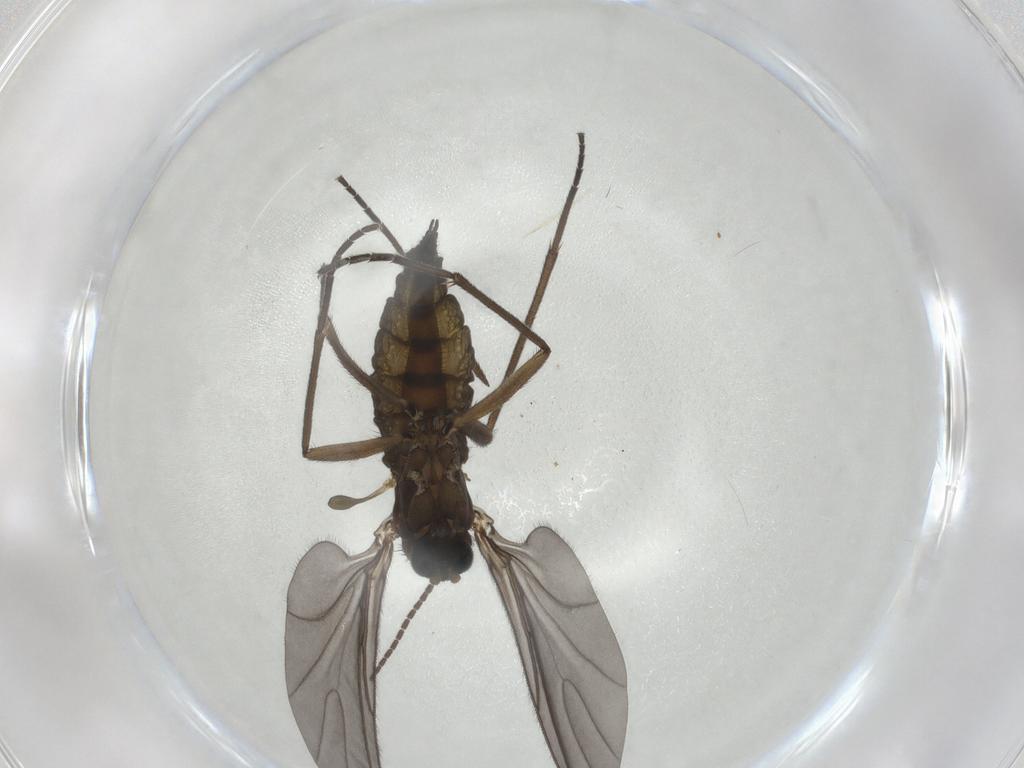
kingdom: Animalia
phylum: Arthropoda
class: Insecta
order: Diptera
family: Sciaridae
